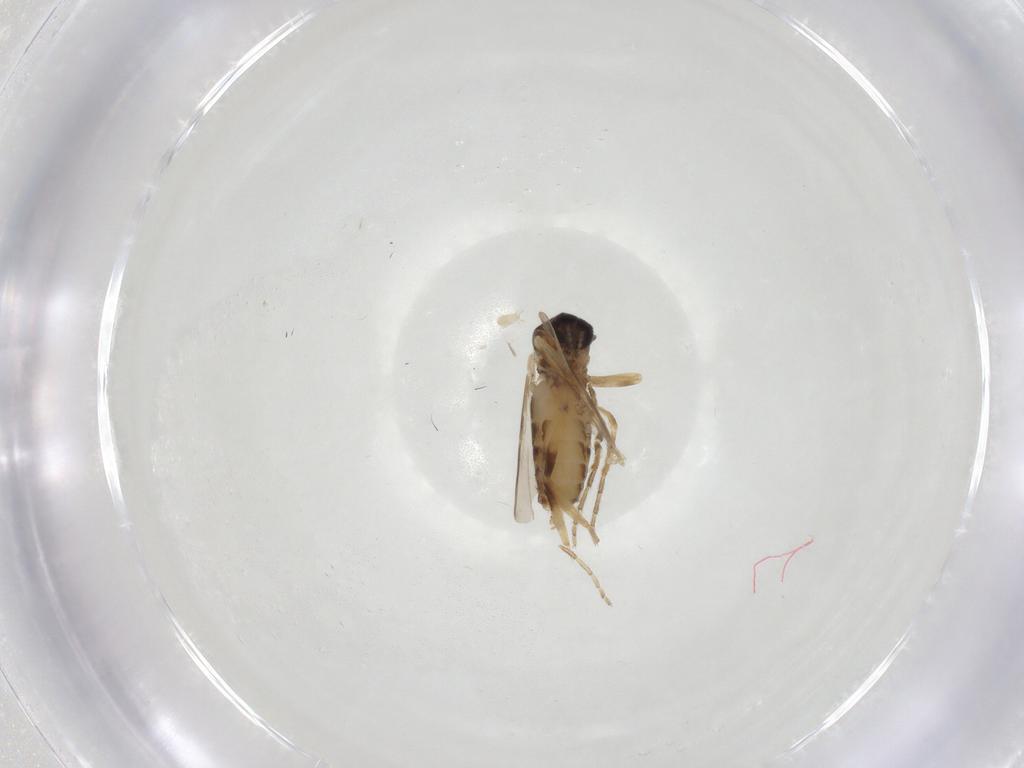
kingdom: Animalia
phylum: Arthropoda
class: Insecta
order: Diptera
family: Ceratopogonidae
